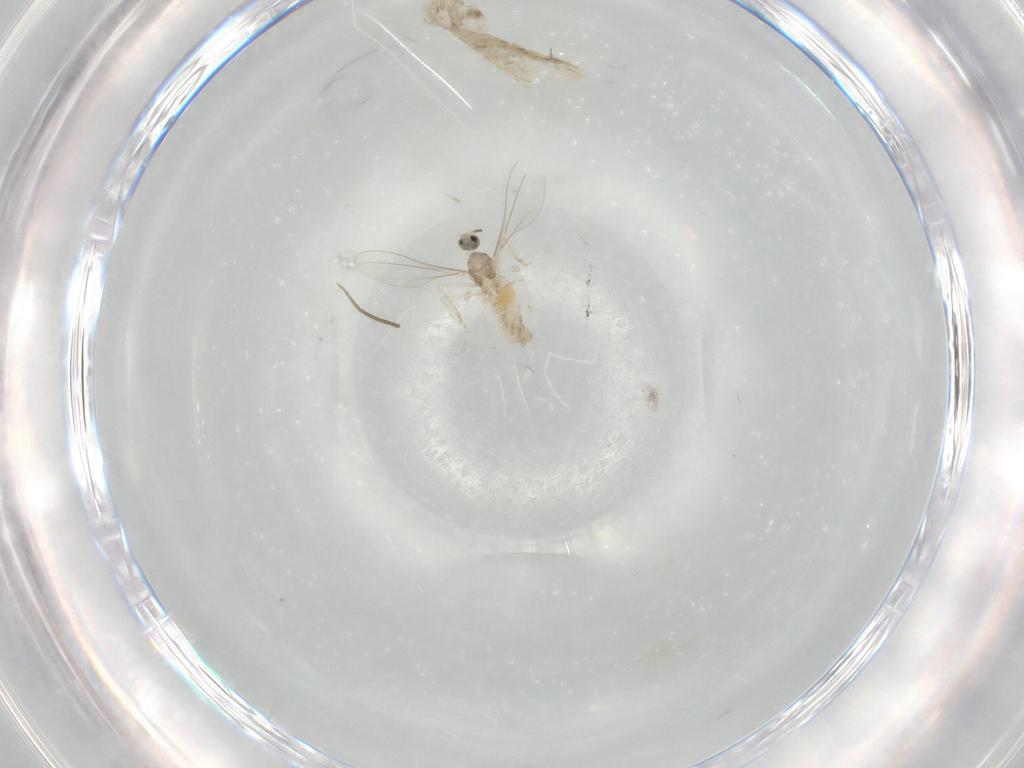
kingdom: Animalia
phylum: Arthropoda
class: Insecta
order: Diptera
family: Cecidomyiidae
